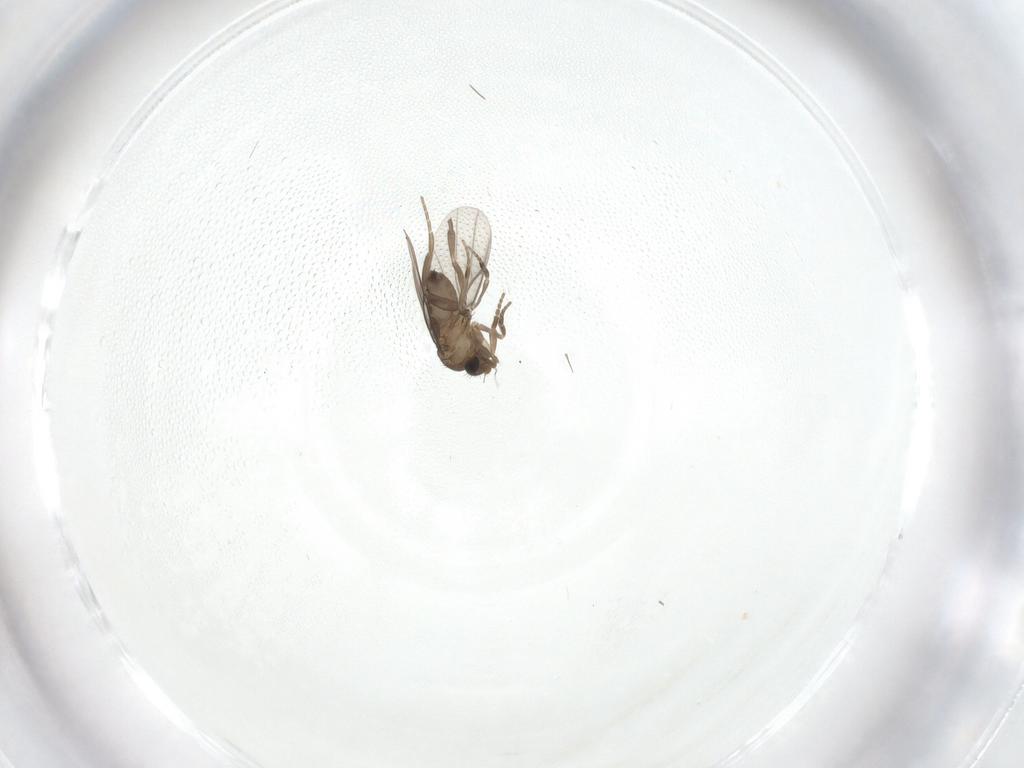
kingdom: Animalia
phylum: Arthropoda
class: Insecta
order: Diptera
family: Phoridae
